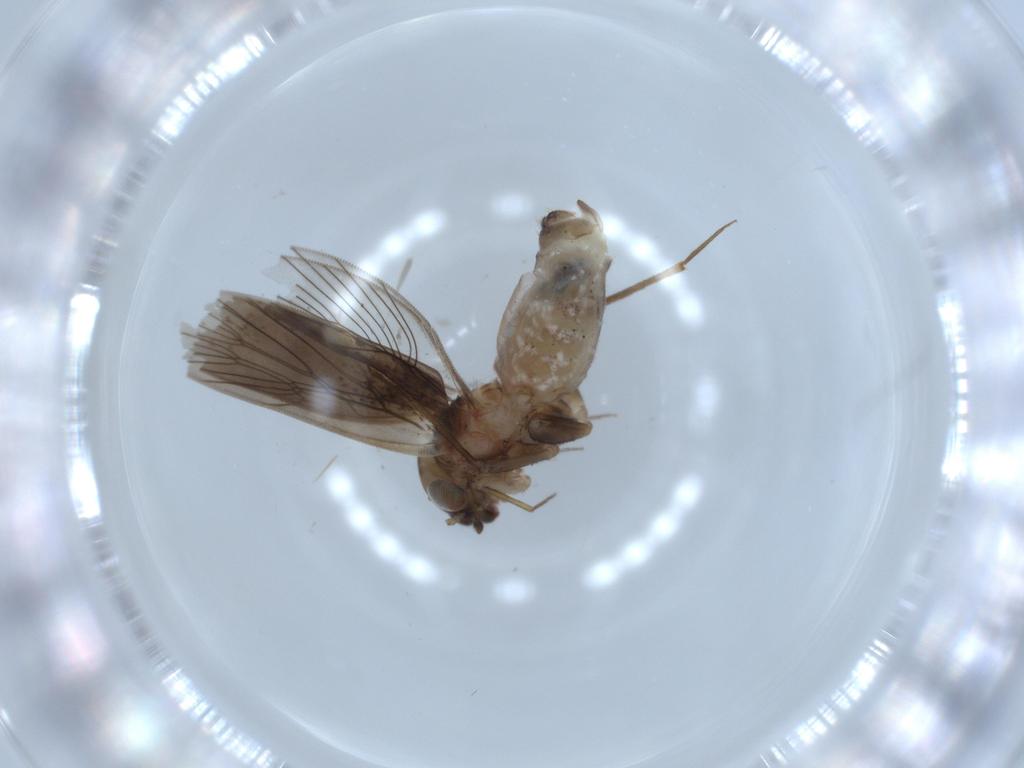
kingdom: Animalia
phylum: Arthropoda
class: Insecta
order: Psocodea
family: Lepidopsocidae
